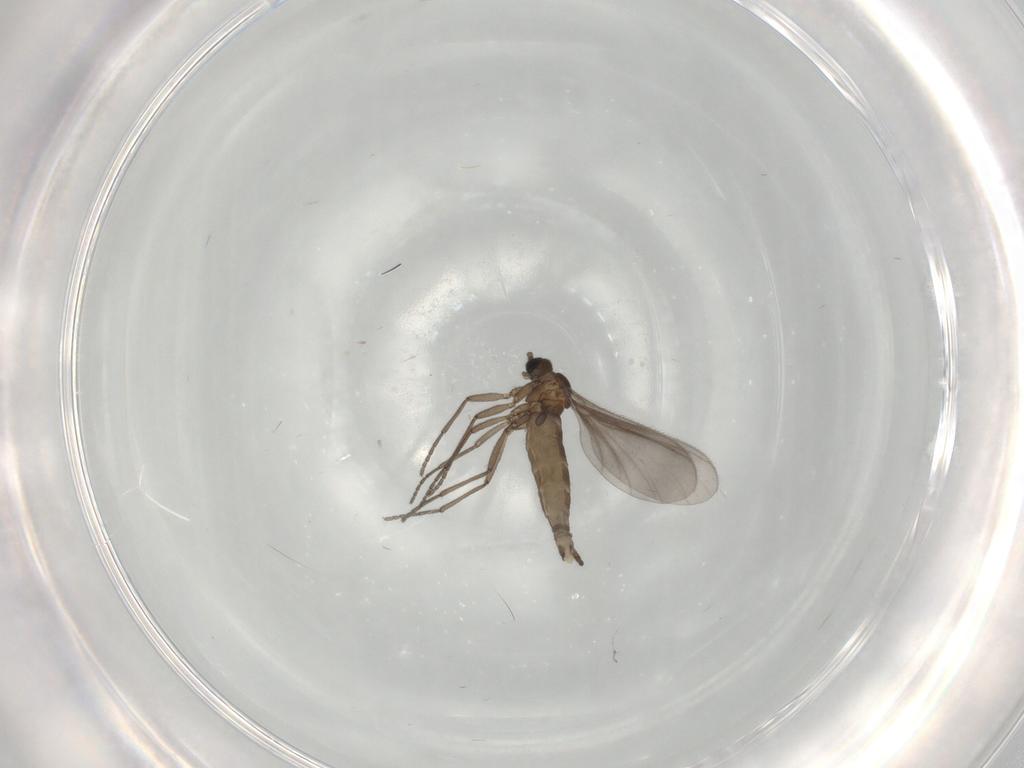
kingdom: Animalia
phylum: Arthropoda
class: Insecta
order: Diptera
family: Sciaridae
